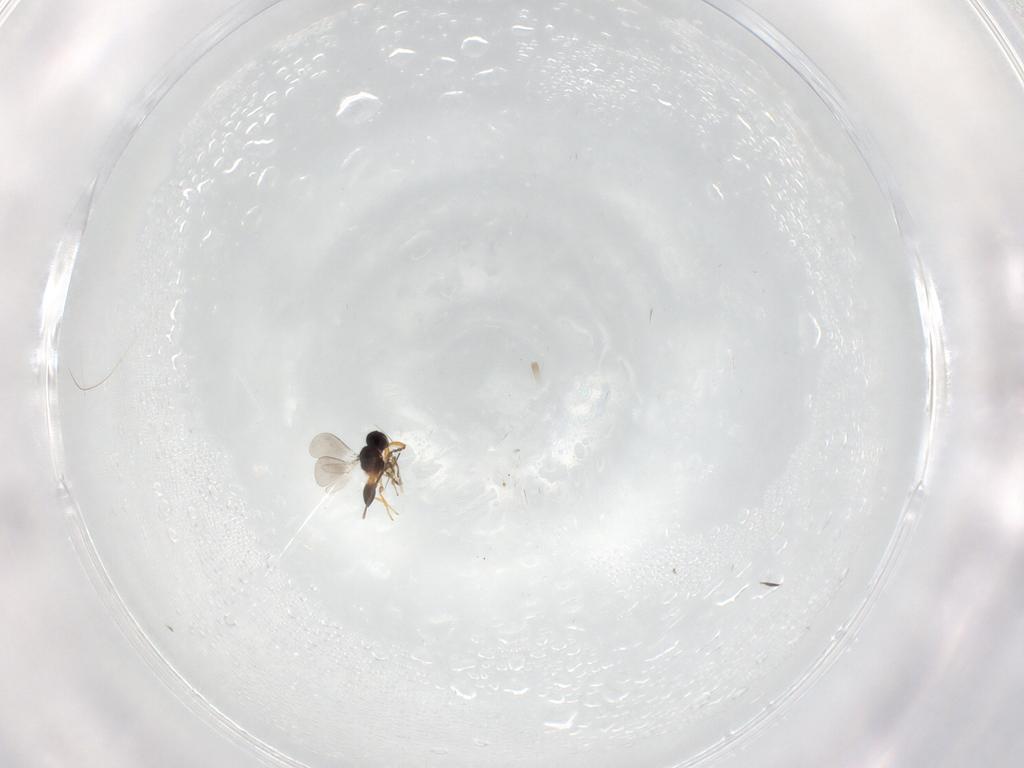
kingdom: Animalia
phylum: Arthropoda
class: Insecta
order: Hymenoptera
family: Platygastridae
